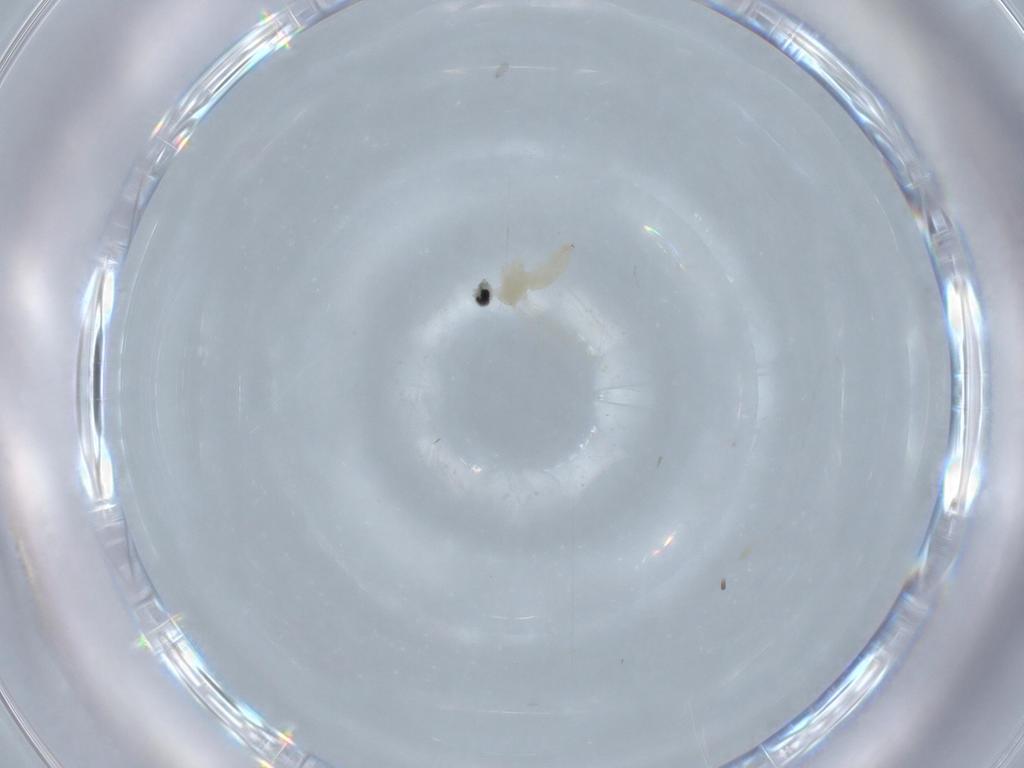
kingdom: Animalia
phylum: Arthropoda
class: Insecta
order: Diptera
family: Cecidomyiidae
